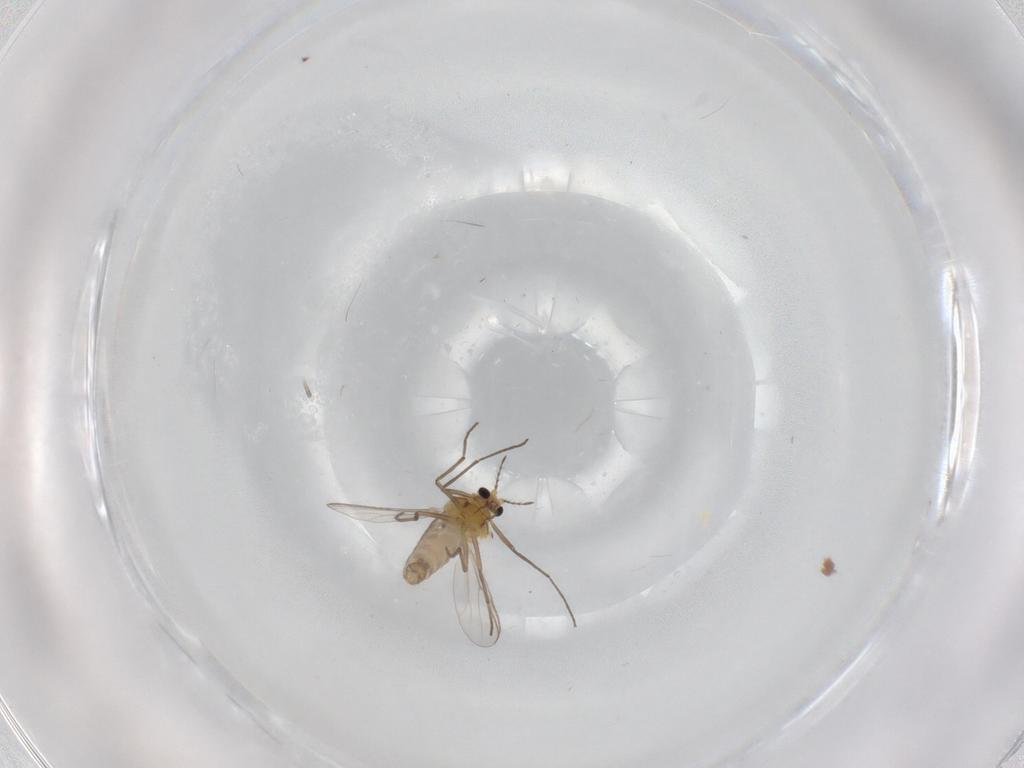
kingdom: Animalia
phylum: Arthropoda
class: Insecta
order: Diptera
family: Chironomidae
